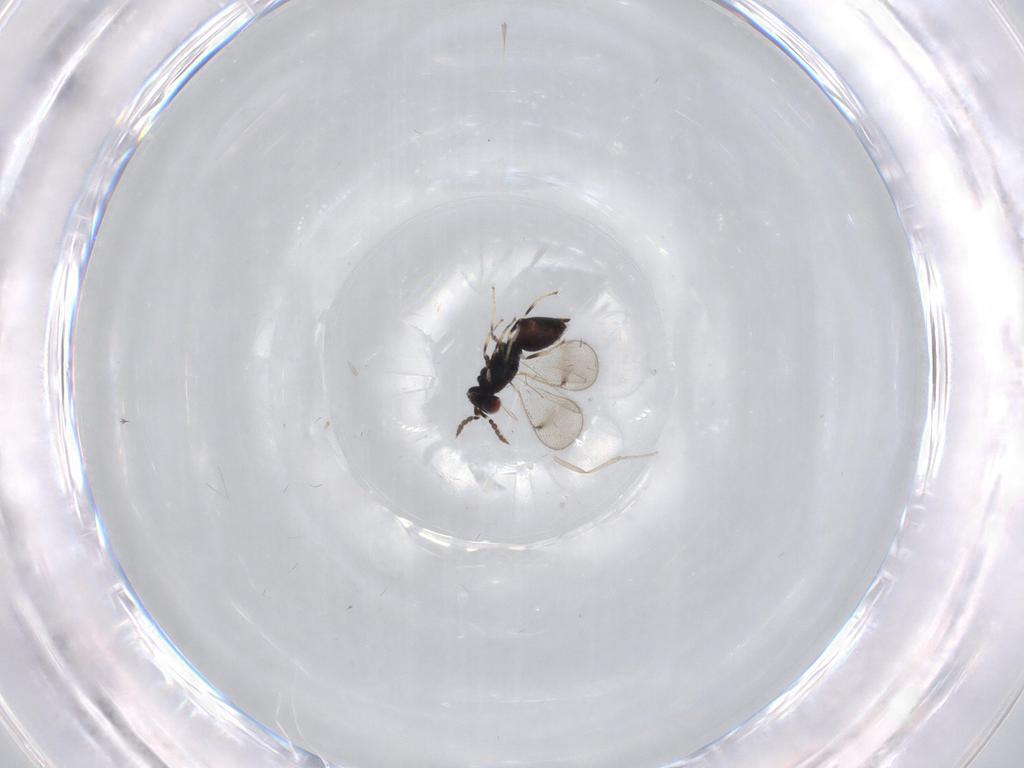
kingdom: Animalia
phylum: Arthropoda
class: Insecta
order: Hymenoptera
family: Eulophidae
